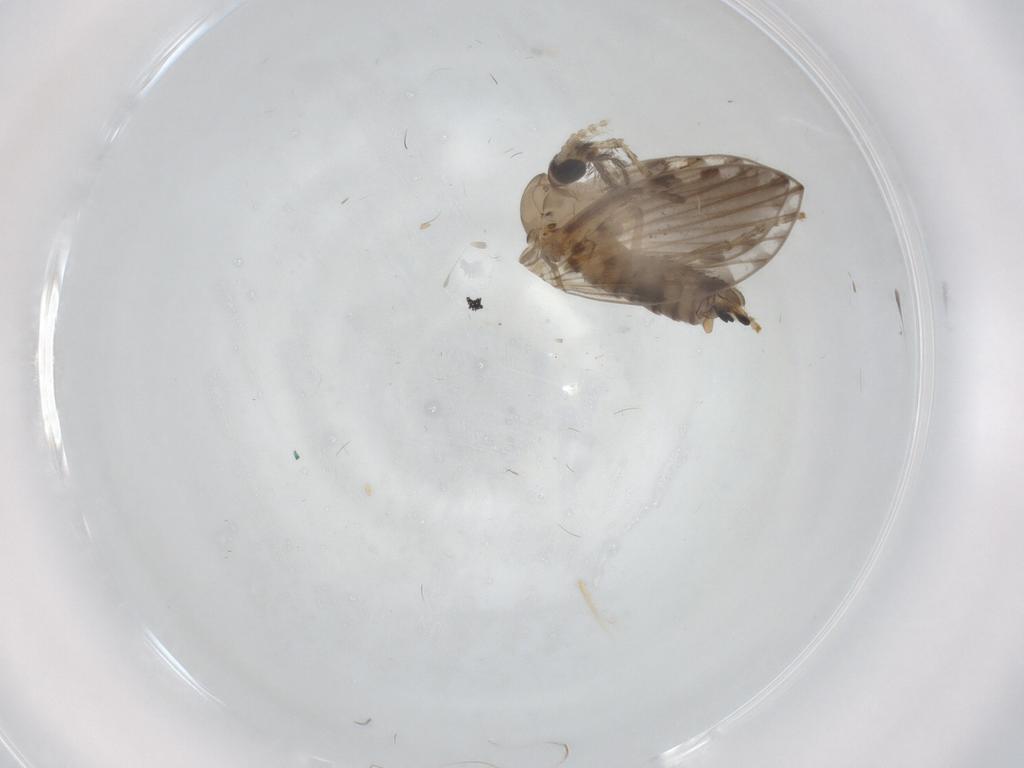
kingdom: Animalia
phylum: Arthropoda
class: Insecta
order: Diptera
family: Psychodidae
